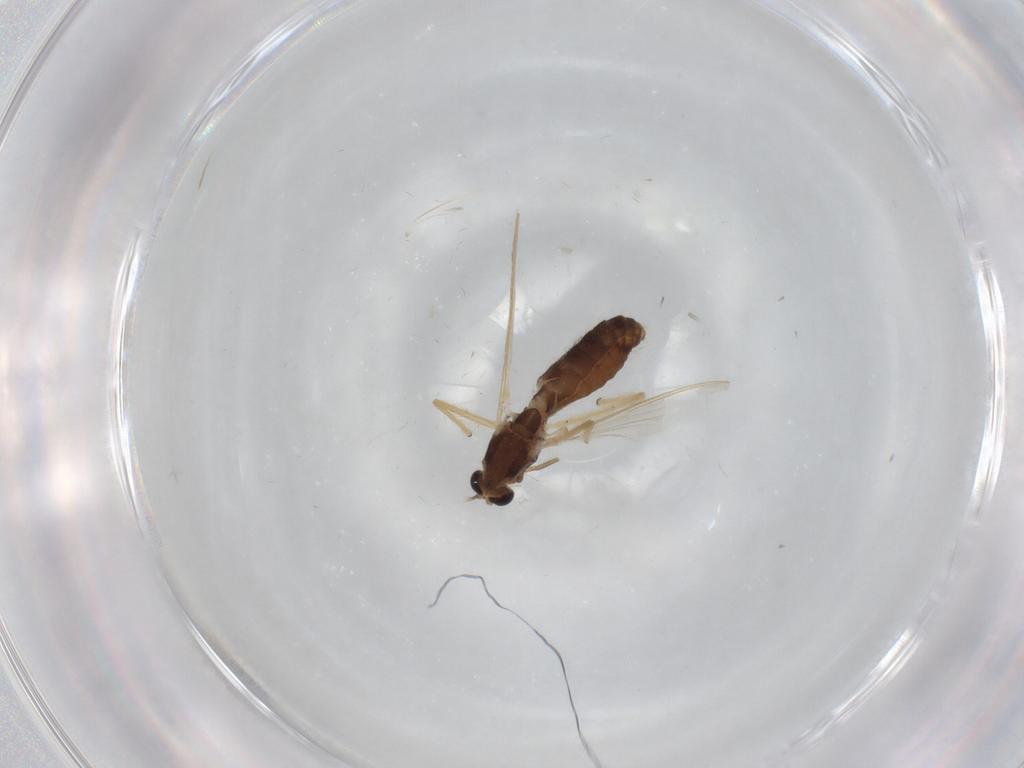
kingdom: Animalia
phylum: Arthropoda
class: Insecta
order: Diptera
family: Chironomidae
